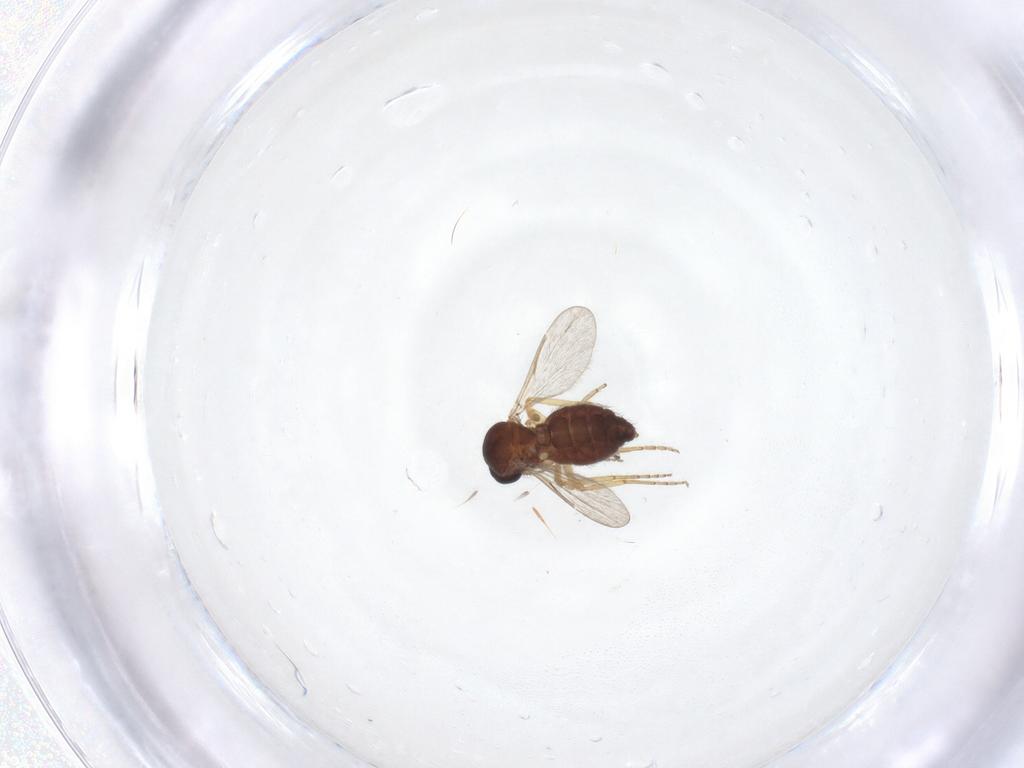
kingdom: Animalia
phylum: Arthropoda
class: Insecta
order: Diptera
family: Ceratopogonidae
